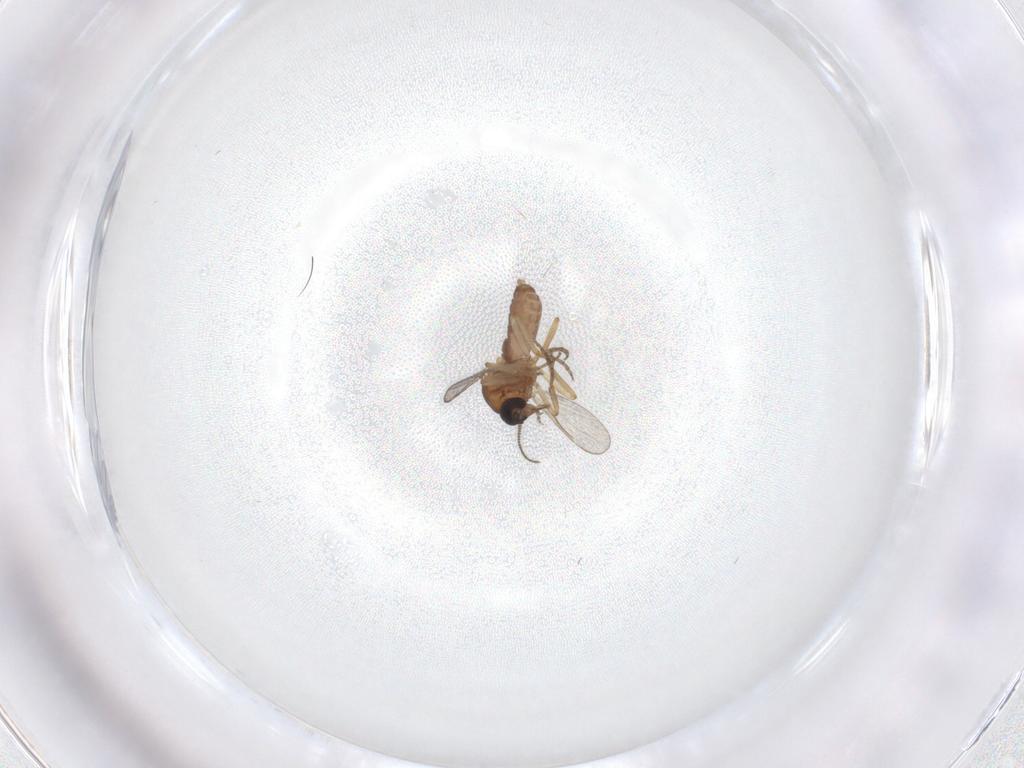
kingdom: Animalia
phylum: Arthropoda
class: Insecta
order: Diptera
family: Ceratopogonidae
